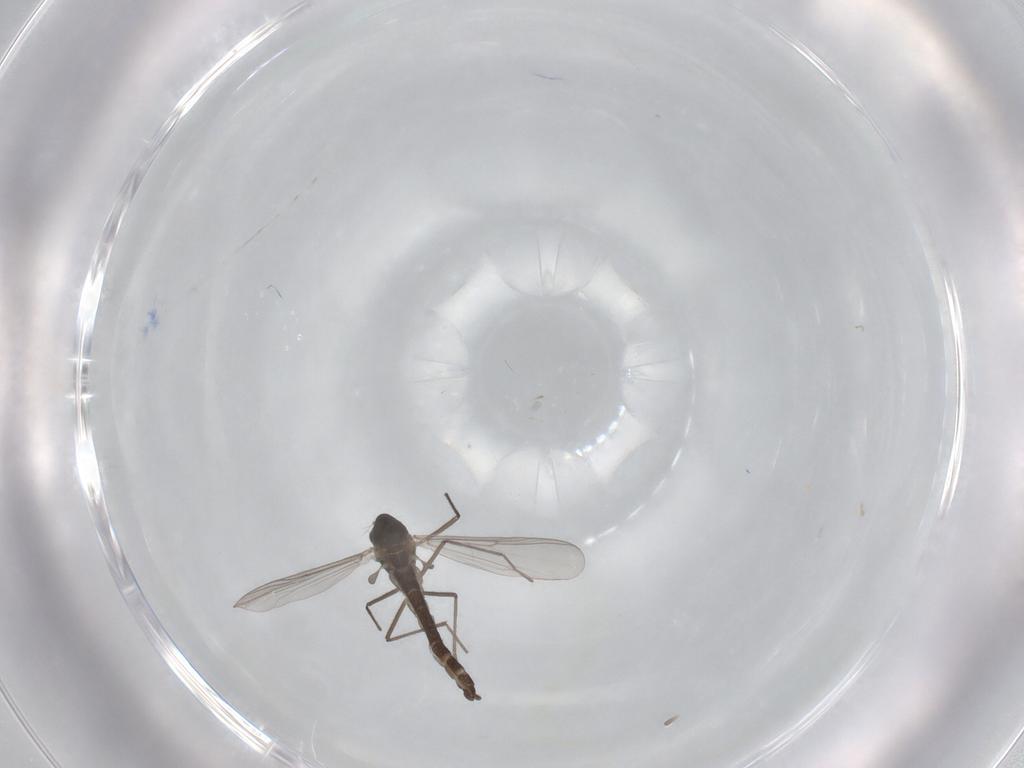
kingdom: Animalia
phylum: Arthropoda
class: Insecta
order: Diptera
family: Chironomidae
